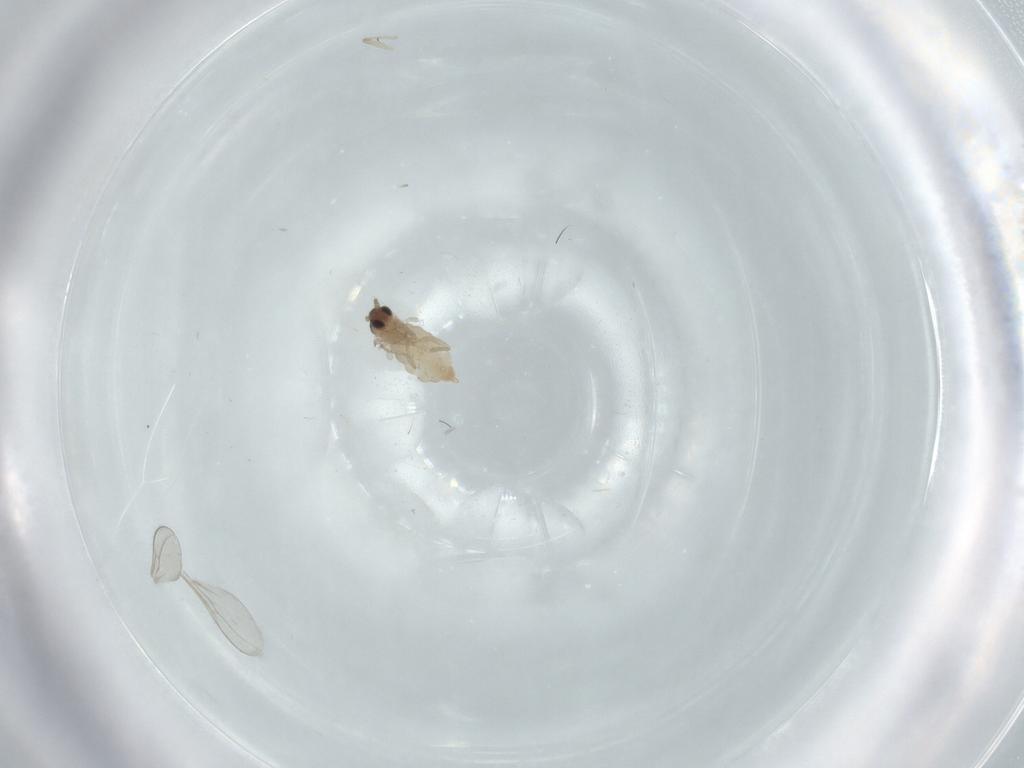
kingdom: Animalia
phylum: Arthropoda
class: Insecta
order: Diptera
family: Cecidomyiidae
